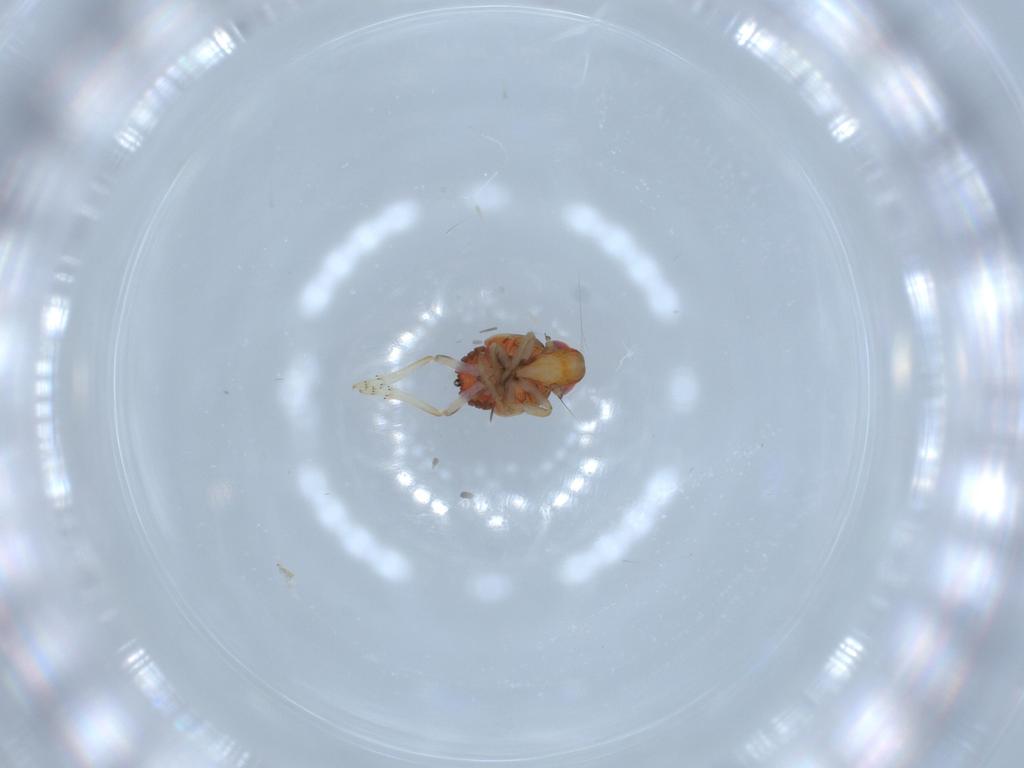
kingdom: Animalia
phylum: Arthropoda
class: Insecta
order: Hemiptera
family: Issidae
